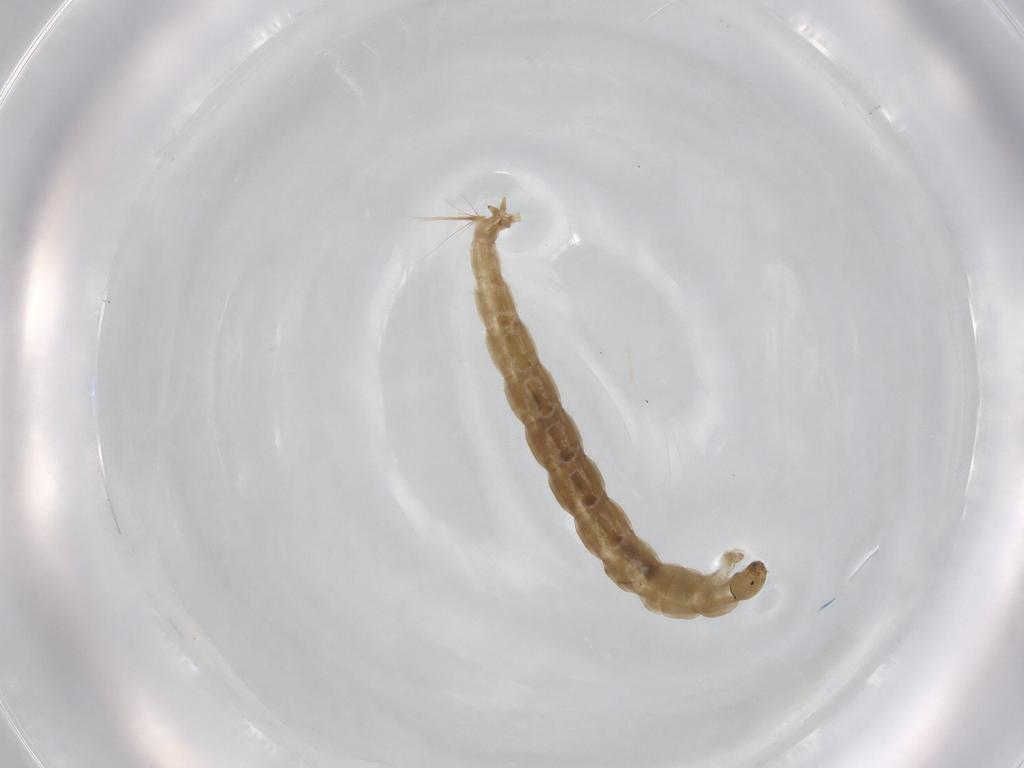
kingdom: Animalia
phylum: Arthropoda
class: Insecta
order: Diptera
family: Chironomidae
